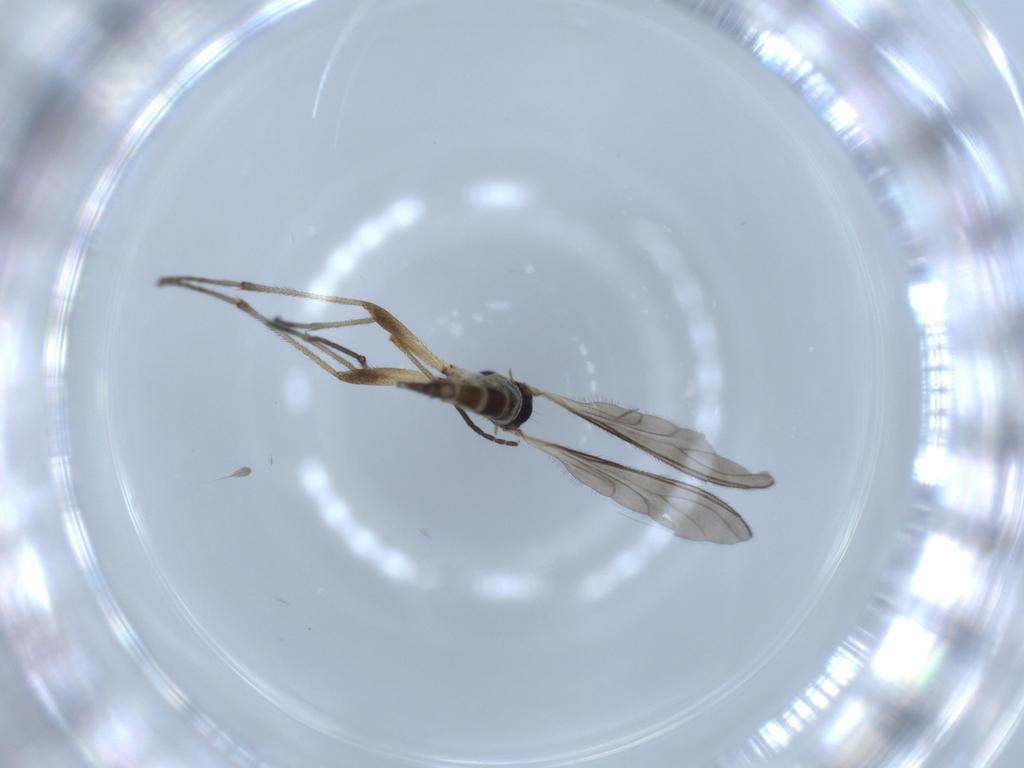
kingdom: Animalia
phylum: Arthropoda
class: Insecta
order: Diptera
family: Sciaridae
